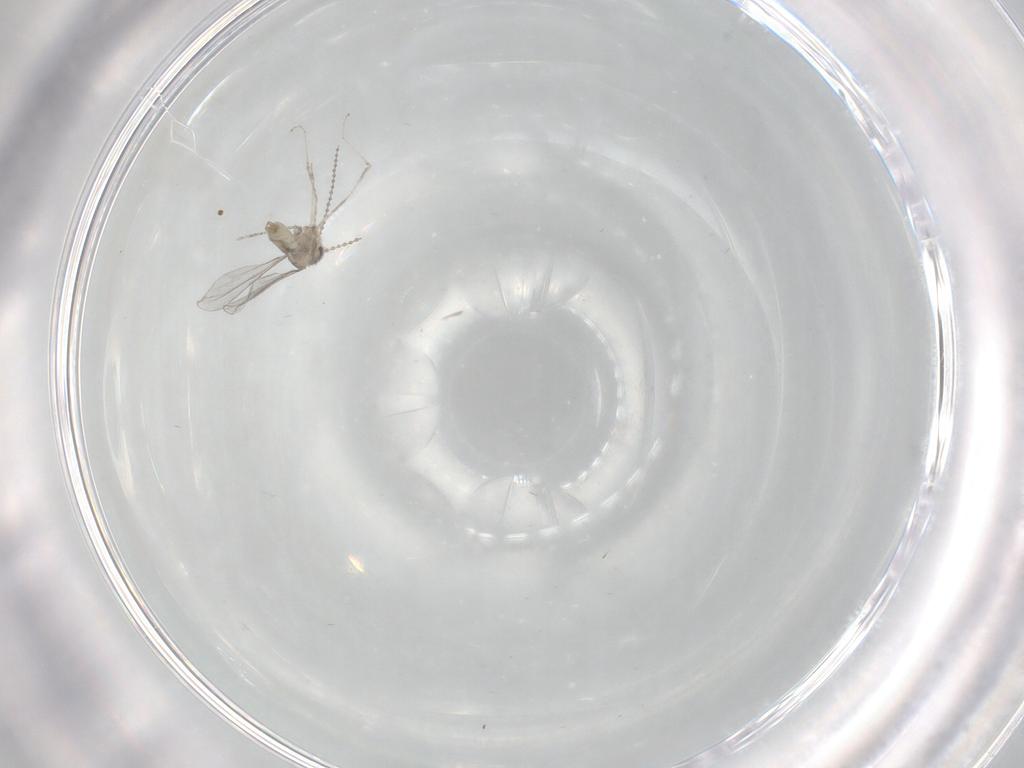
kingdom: Animalia
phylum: Arthropoda
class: Insecta
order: Diptera
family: Cecidomyiidae
